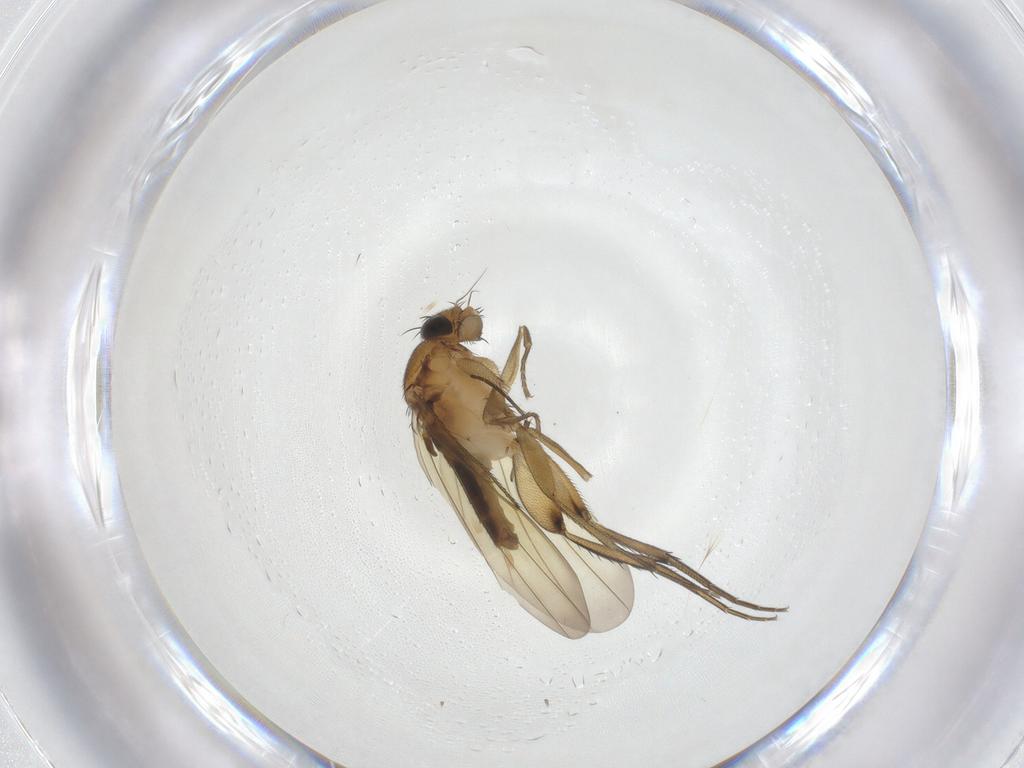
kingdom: Animalia
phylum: Arthropoda
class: Insecta
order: Diptera
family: Phoridae
